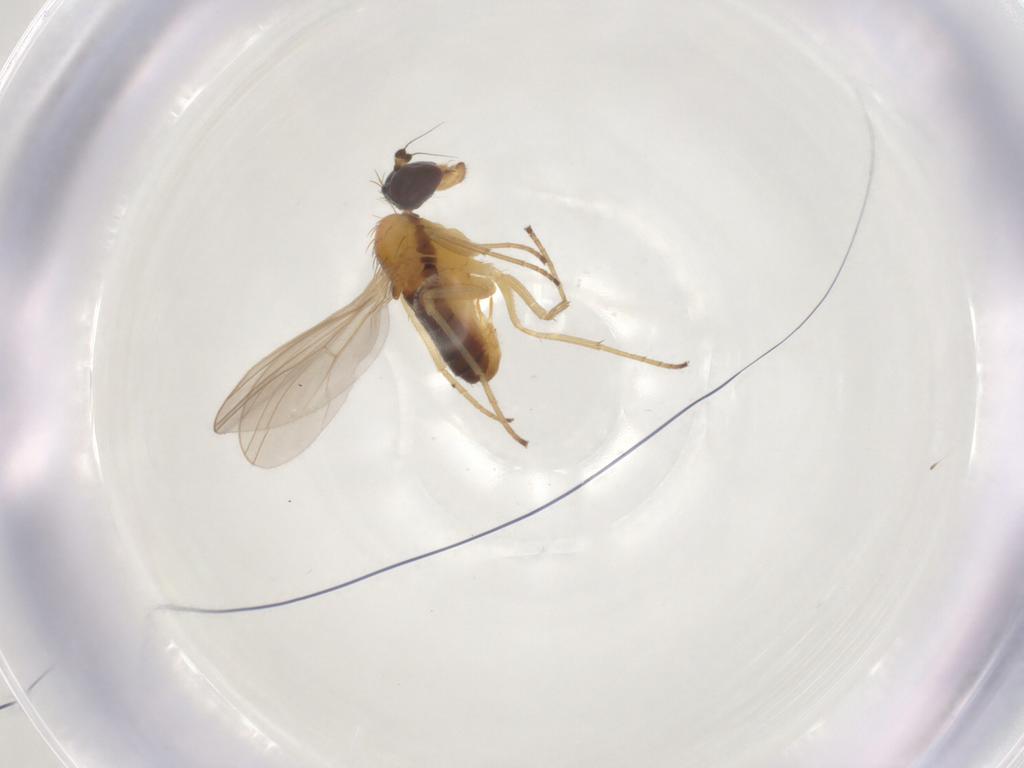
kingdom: Animalia
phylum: Arthropoda
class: Insecta
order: Diptera
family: Dolichopodidae
